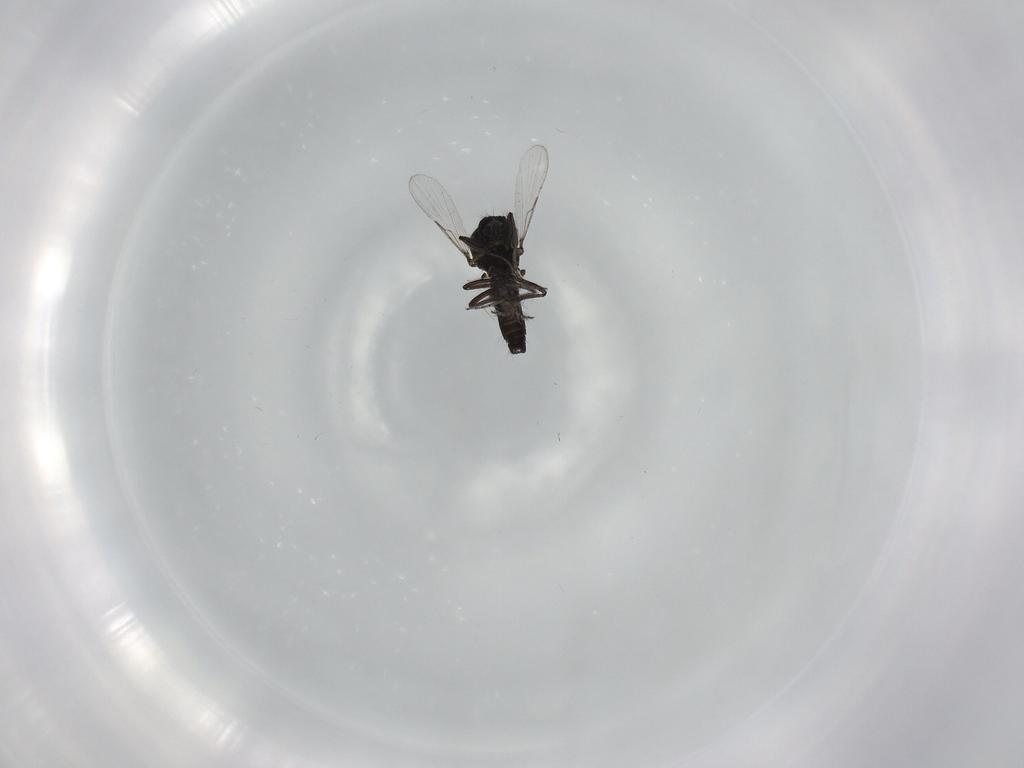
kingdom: Animalia
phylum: Arthropoda
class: Insecta
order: Diptera
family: Ceratopogonidae
